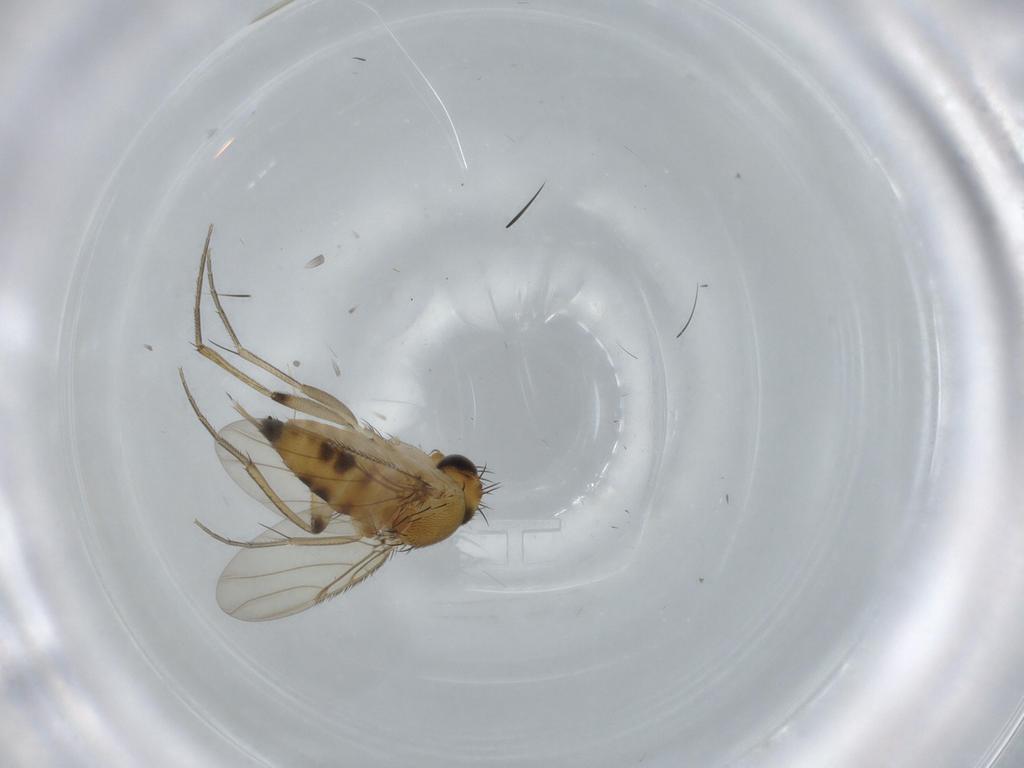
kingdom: Animalia
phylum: Arthropoda
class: Insecta
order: Diptera
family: Phoridae
